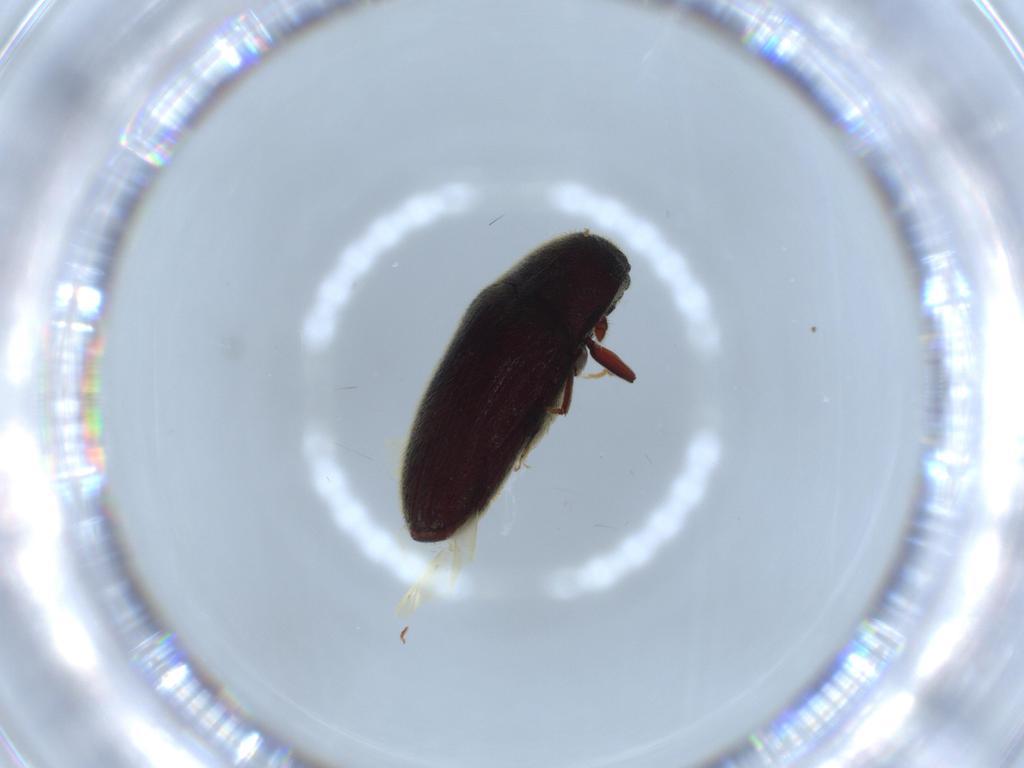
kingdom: Animalia
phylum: Arthropoda
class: Insecta
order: Coleoptera
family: Throscidae
